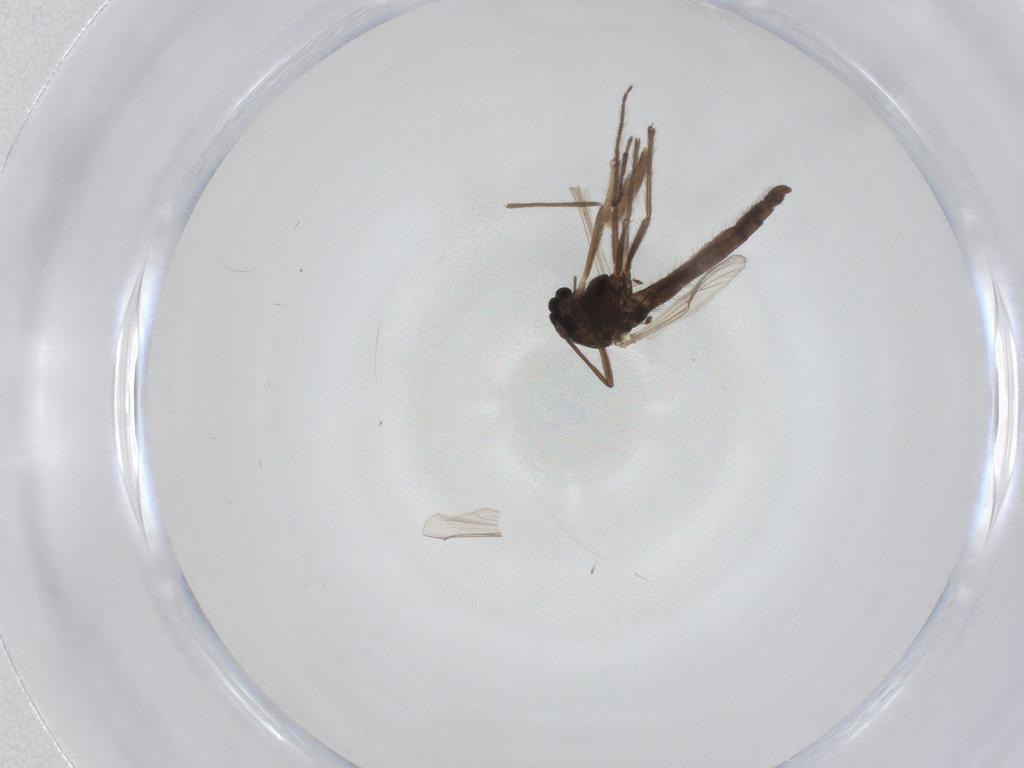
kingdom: Animalia
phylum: Arthropoda
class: Insecta
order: Diptera
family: Chironomidae
